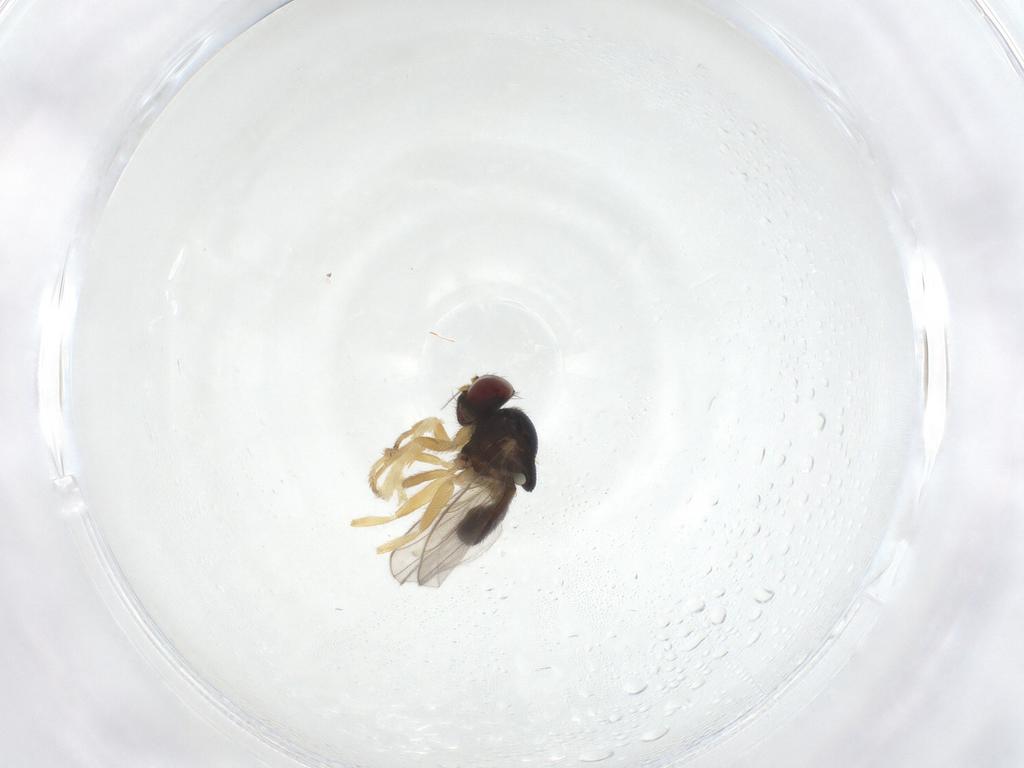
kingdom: Animalia
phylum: Arthropoda
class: Insecta
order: Diptera
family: Chloropidae
